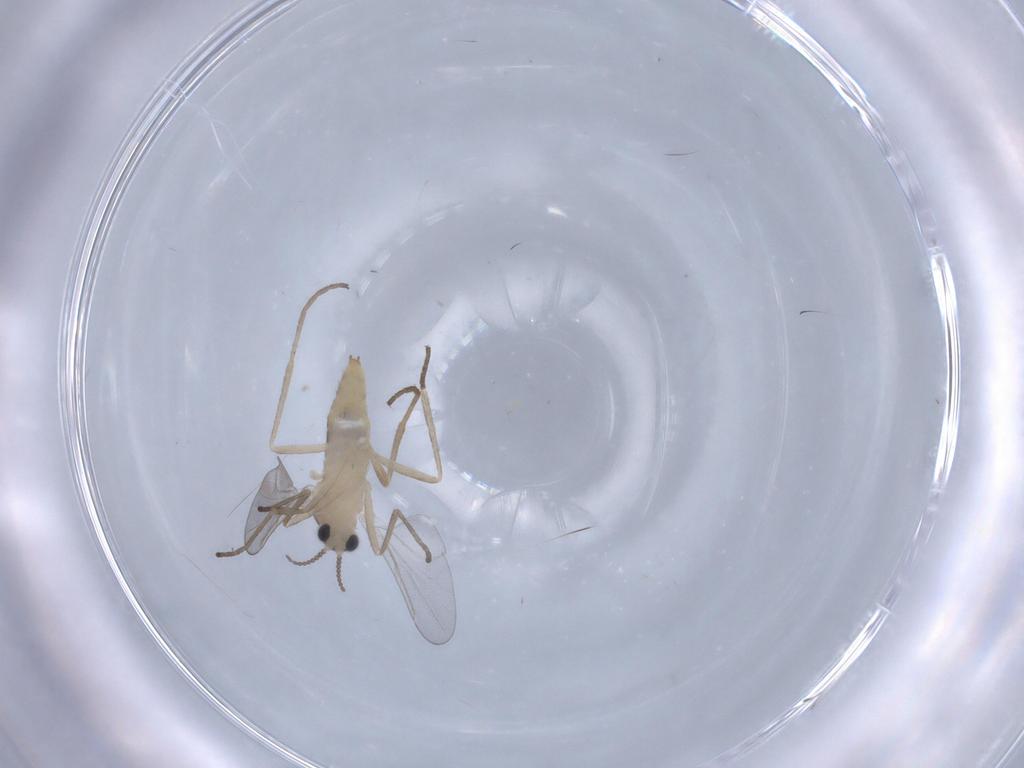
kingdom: Animalia
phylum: Arthropoda
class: Insecta
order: Diptera
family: Cecidomyiidae
